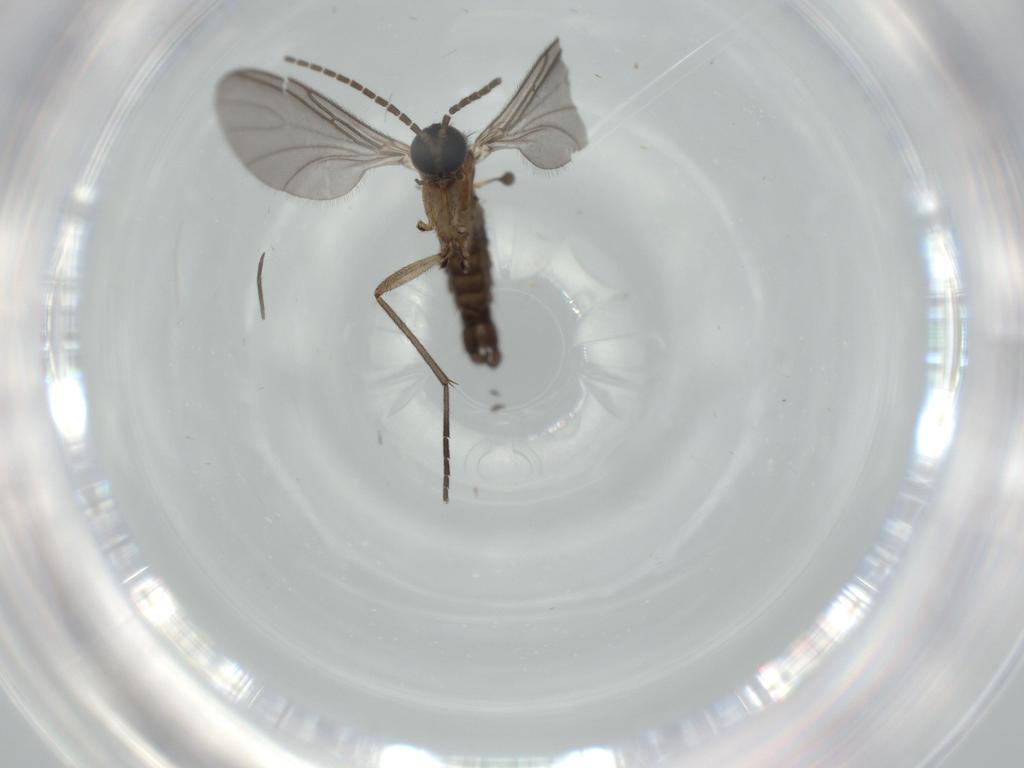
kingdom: Animalia
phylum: Arthropoda
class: Insecta
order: Diptera
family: Sciaridae
